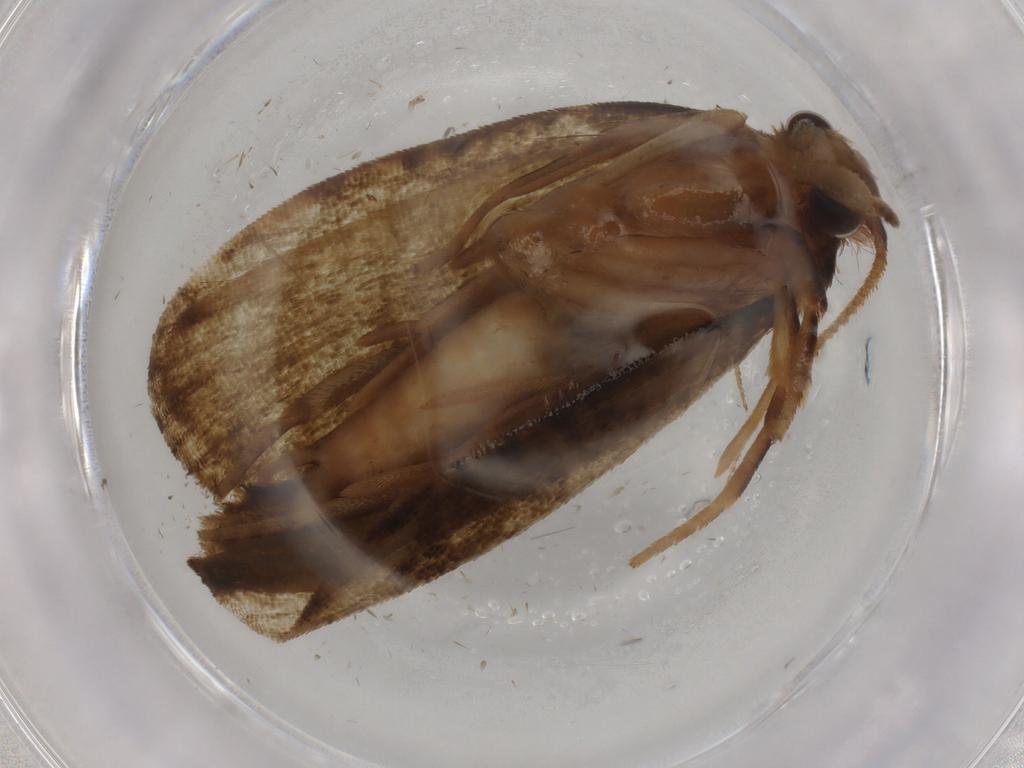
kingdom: Animalia
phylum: Arthropoda
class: Insecta
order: Lepidoptera
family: Geometridae
